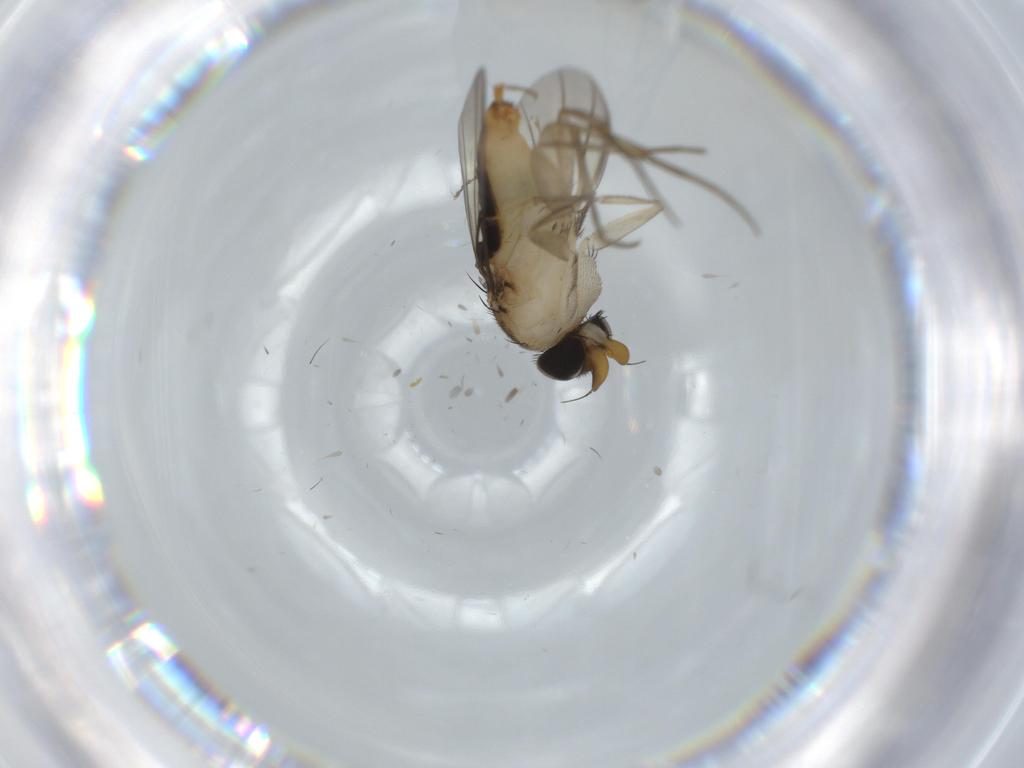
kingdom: Animalia
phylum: Arthropoda
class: Insecta
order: Diptera
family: Phoridae
